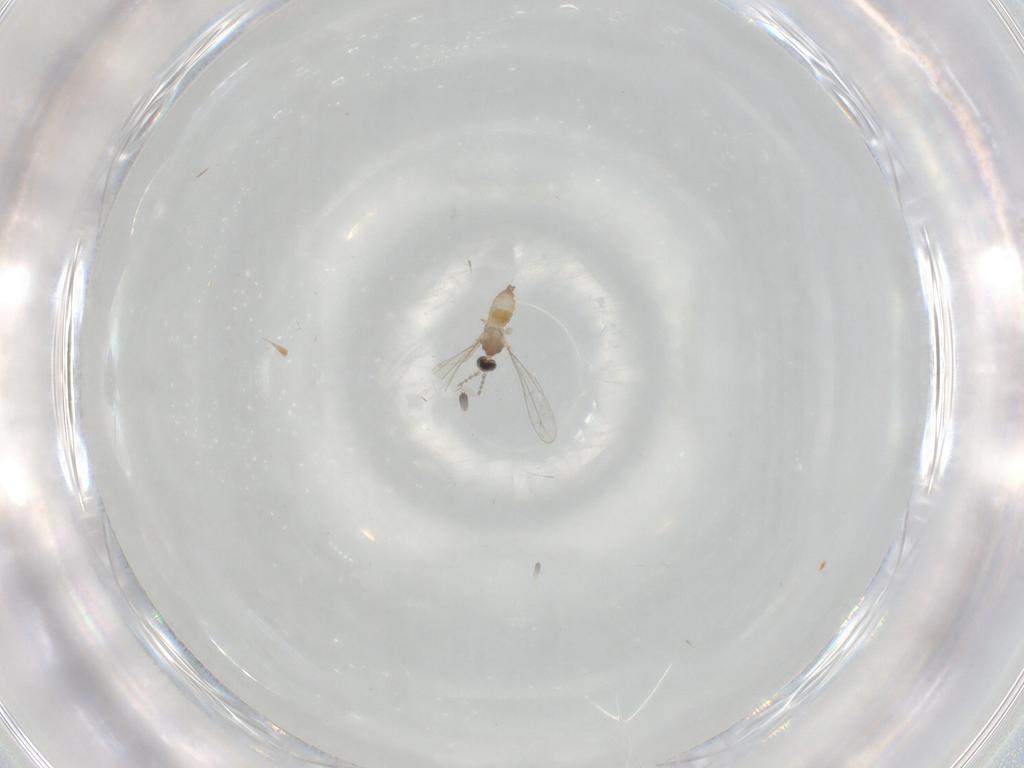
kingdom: Animalia
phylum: Arthropoda
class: Insecta
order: Diptera
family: Cecidomyiidae
